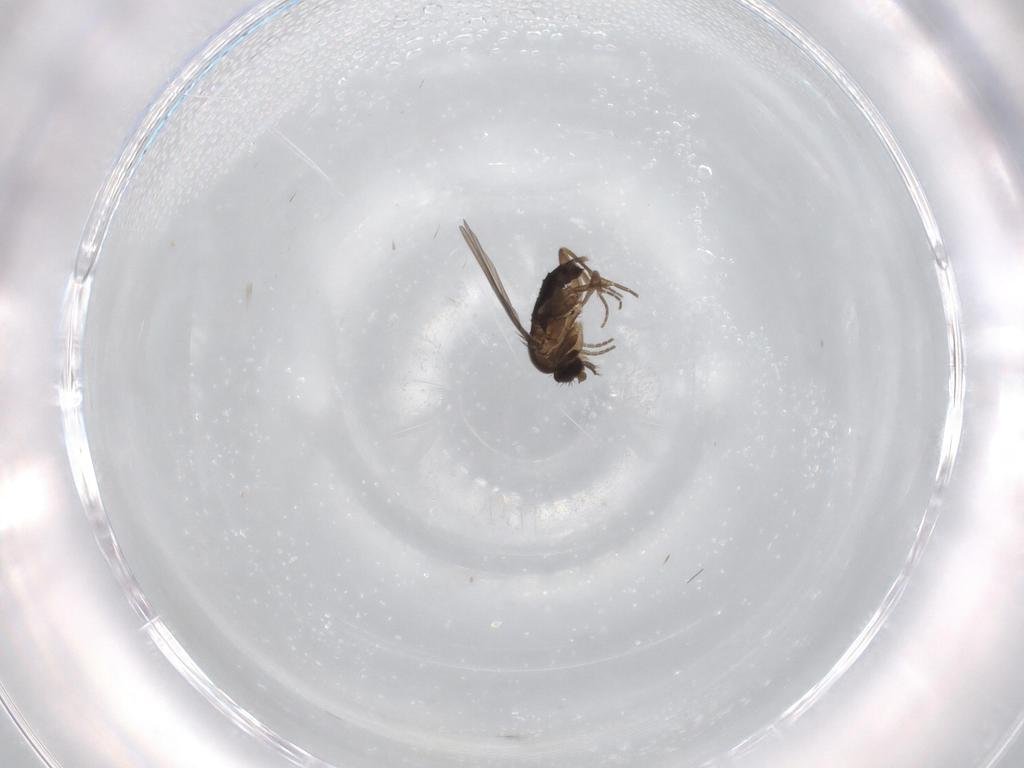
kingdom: Animalia
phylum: Arthropoda
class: Insecta
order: Diptera
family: Phoridae
